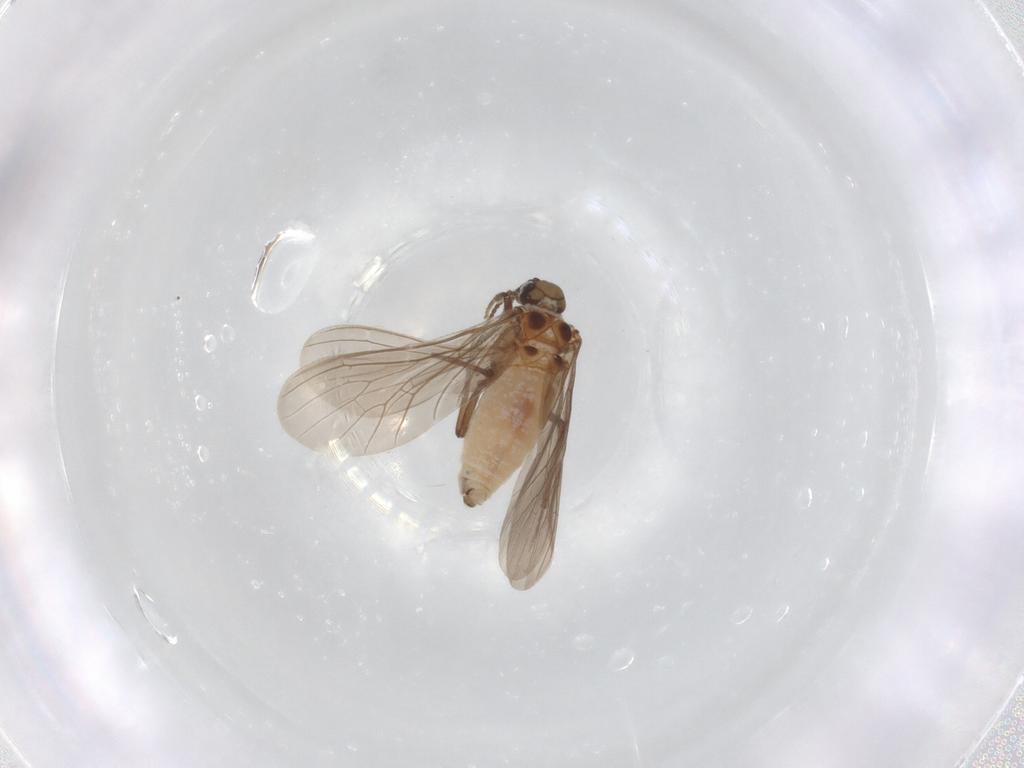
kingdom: Animalia
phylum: Arthropoda
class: Insecta
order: Neuroptera
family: Coniopterygidae
